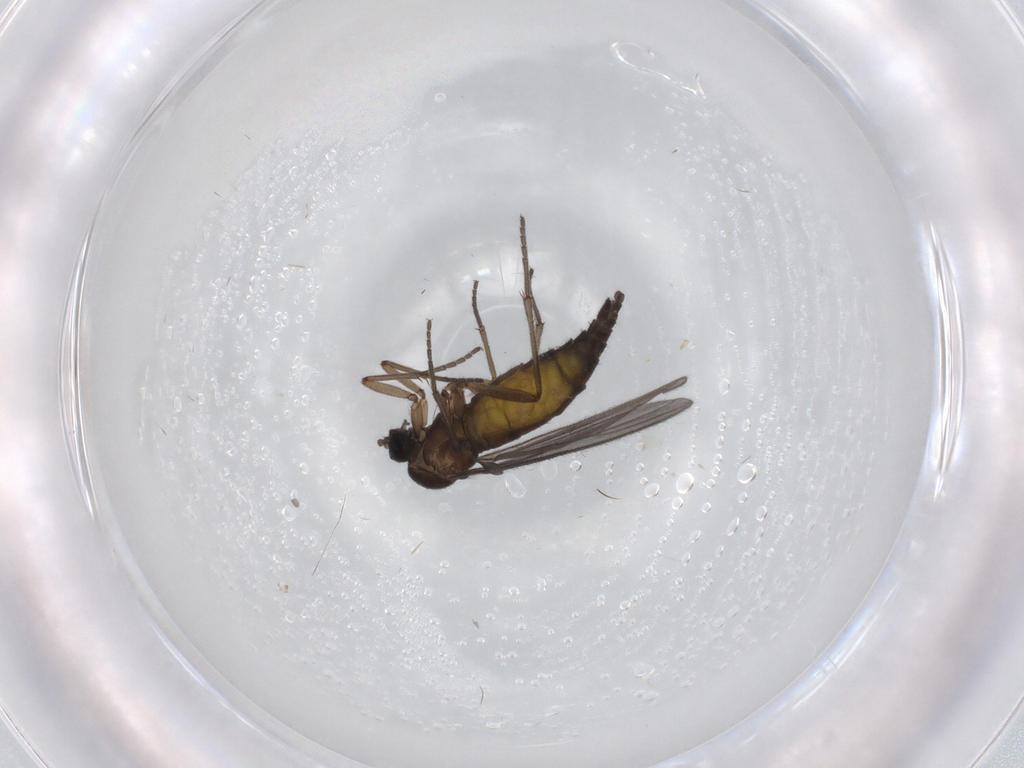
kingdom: Animalia
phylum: Arthropoda
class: Insecta
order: Diptera
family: Sciaridae
